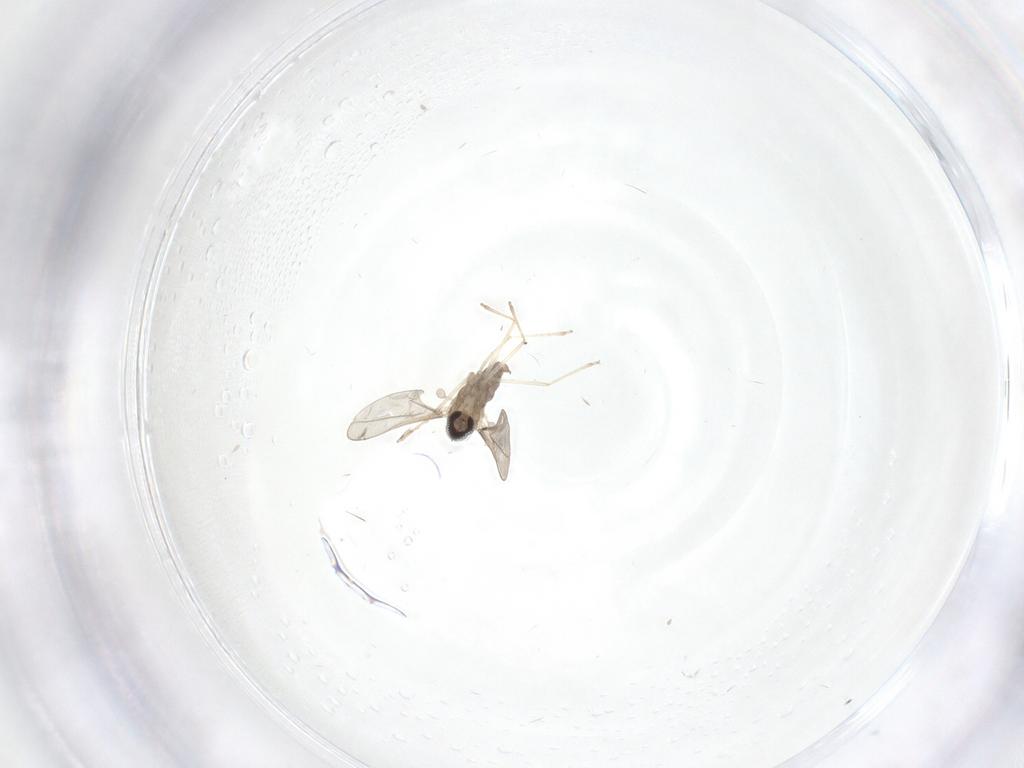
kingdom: Animalia
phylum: Arthropoda
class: Insecta
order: Diptera
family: Cecidomyiidae
